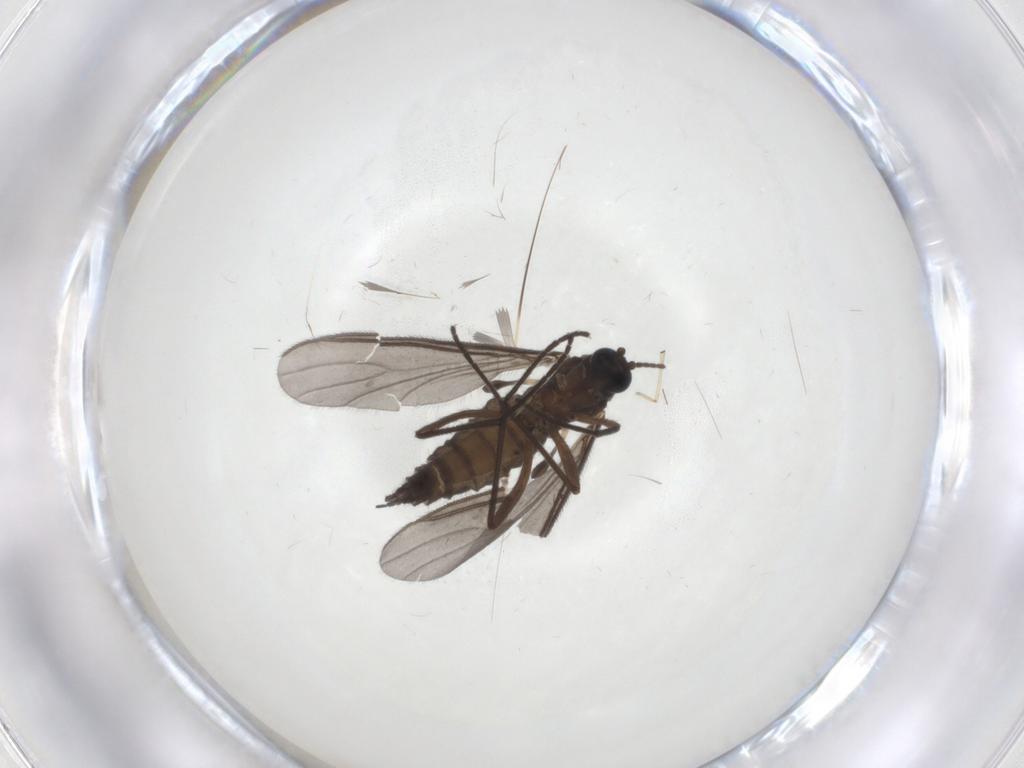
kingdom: Animalia
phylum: Arthropoda
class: Insecta
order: Diptera
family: Sciaridae
